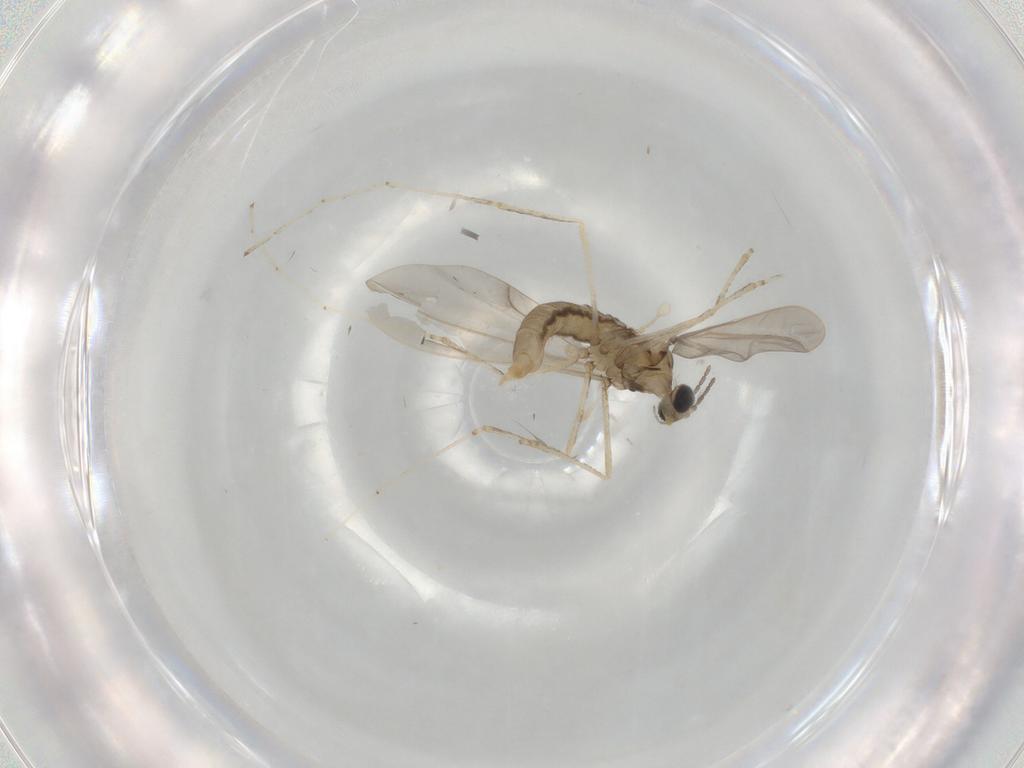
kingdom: Animalia
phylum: Arthropoda
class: Insecta
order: Diptera
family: Cecidomyiidae
